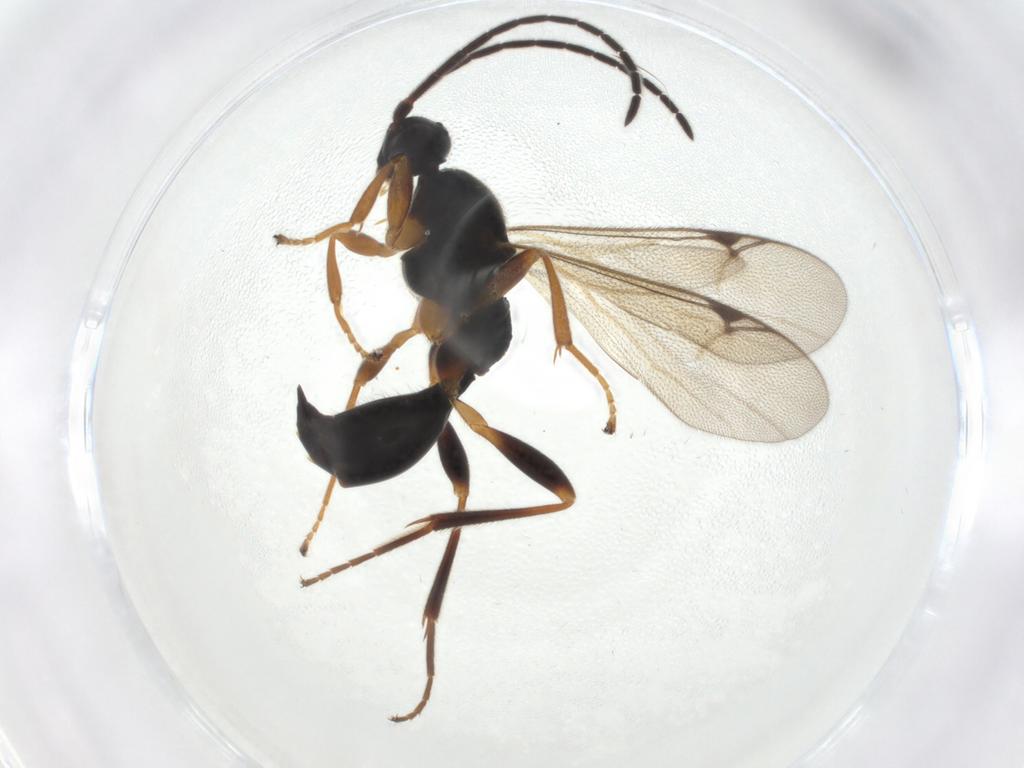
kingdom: Animalia
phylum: Arthropoda
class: Insecta
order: Hymenoptera
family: Proctotrupidae
